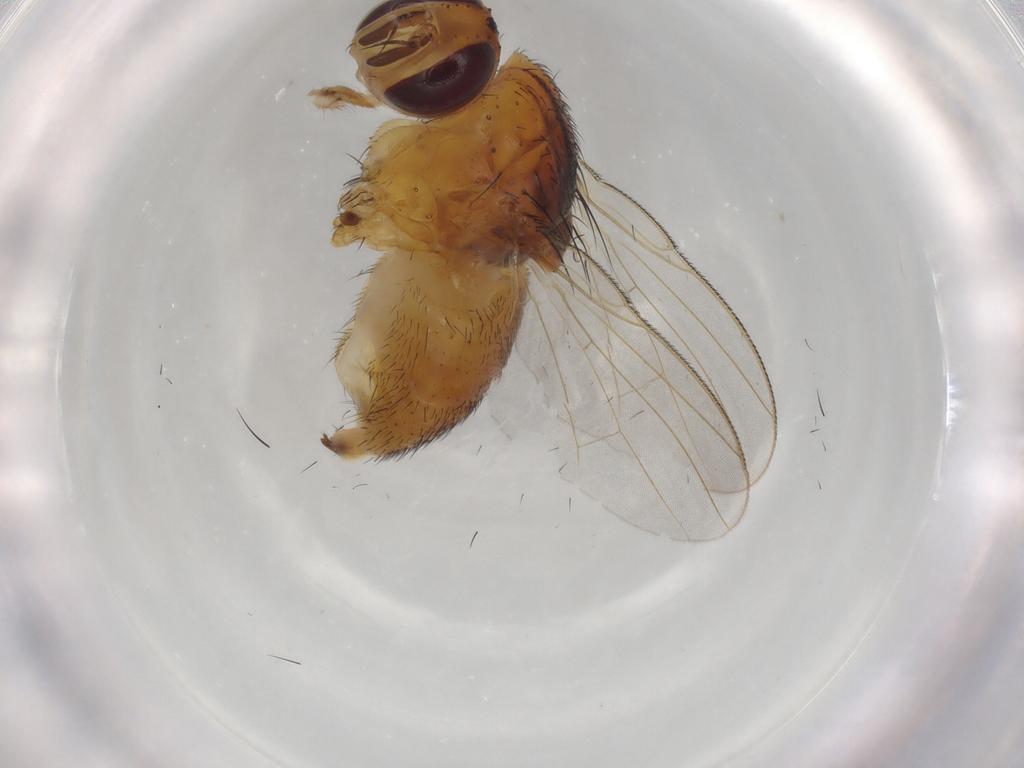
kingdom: Animalia
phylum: Arthropoda
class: Insecta
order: Diptera
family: Muscidae
